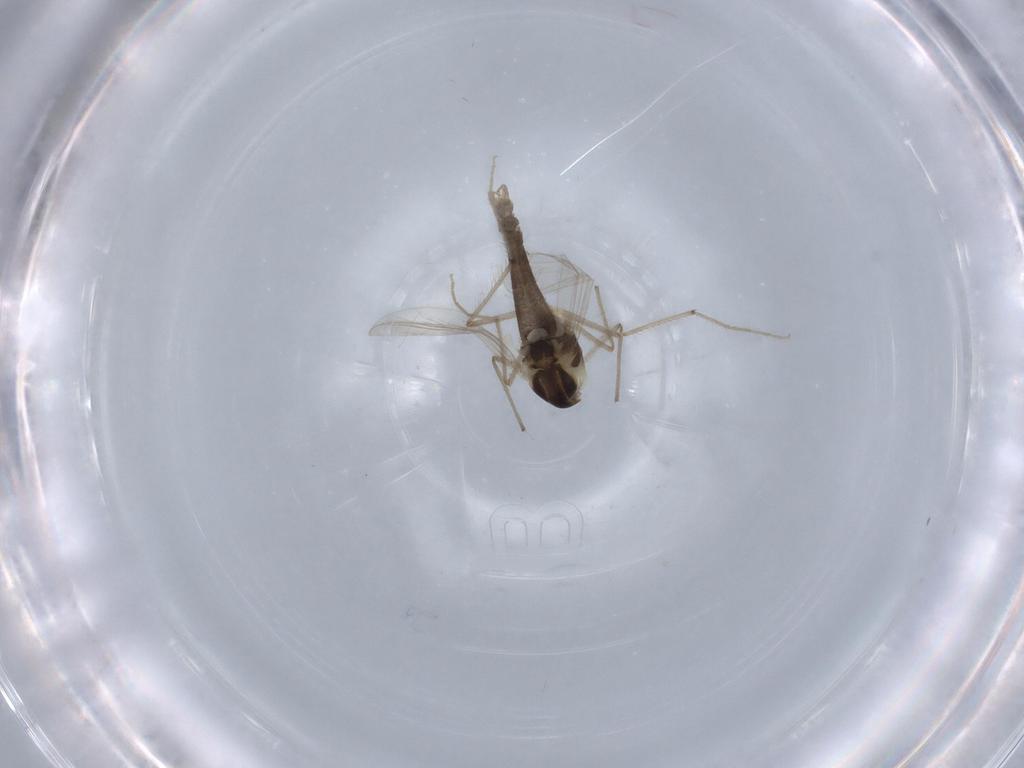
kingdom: Animalia
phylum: Arthropoda
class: Insecta
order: Diptera
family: Chironomidae
